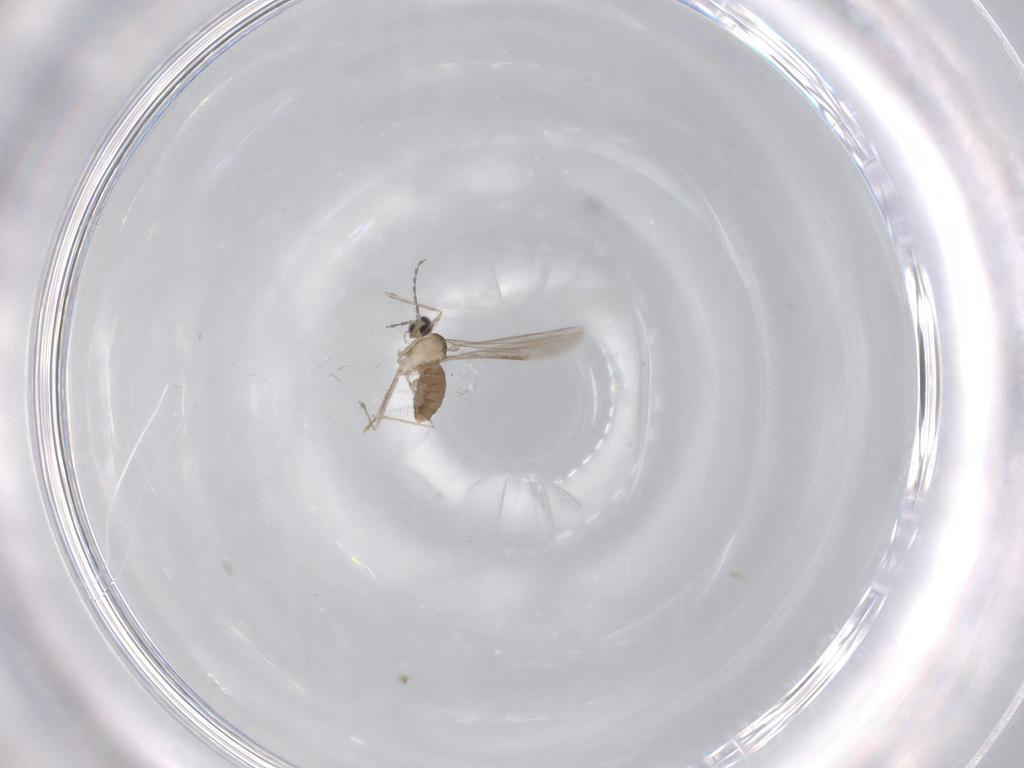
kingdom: Animalia
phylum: Arthropoda
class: Insecta
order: Diptera
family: Cecidomyiidae
